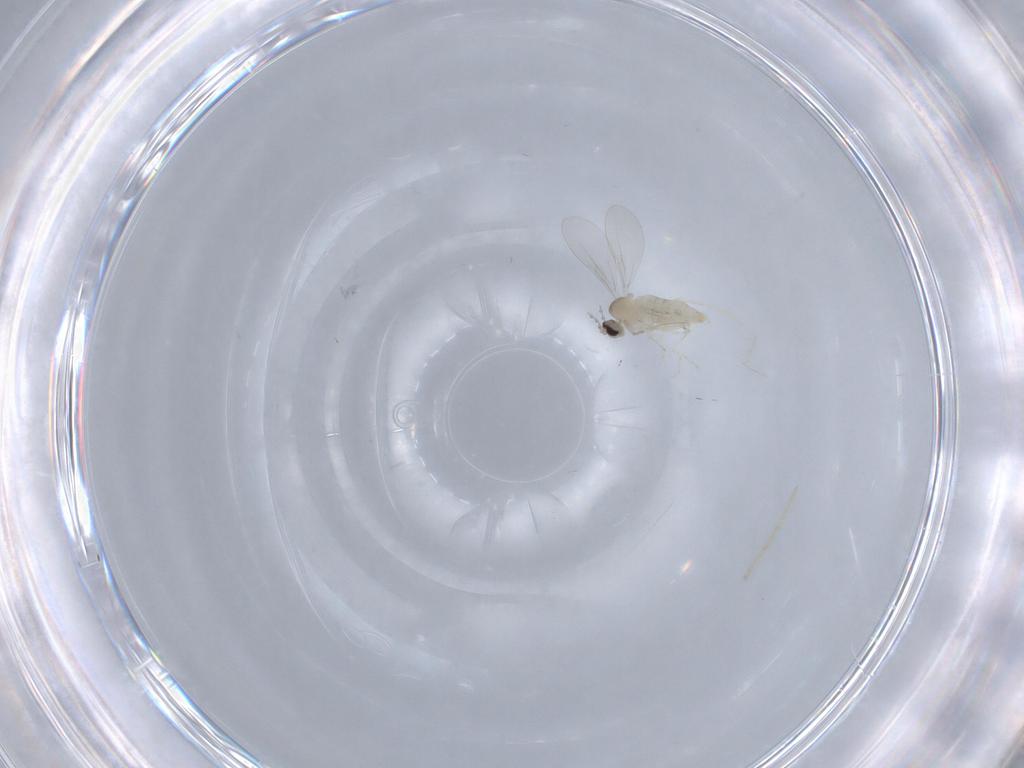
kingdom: Animalia
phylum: Arthropoda
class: Insecta
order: Diptera
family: Cecidomyiidae
